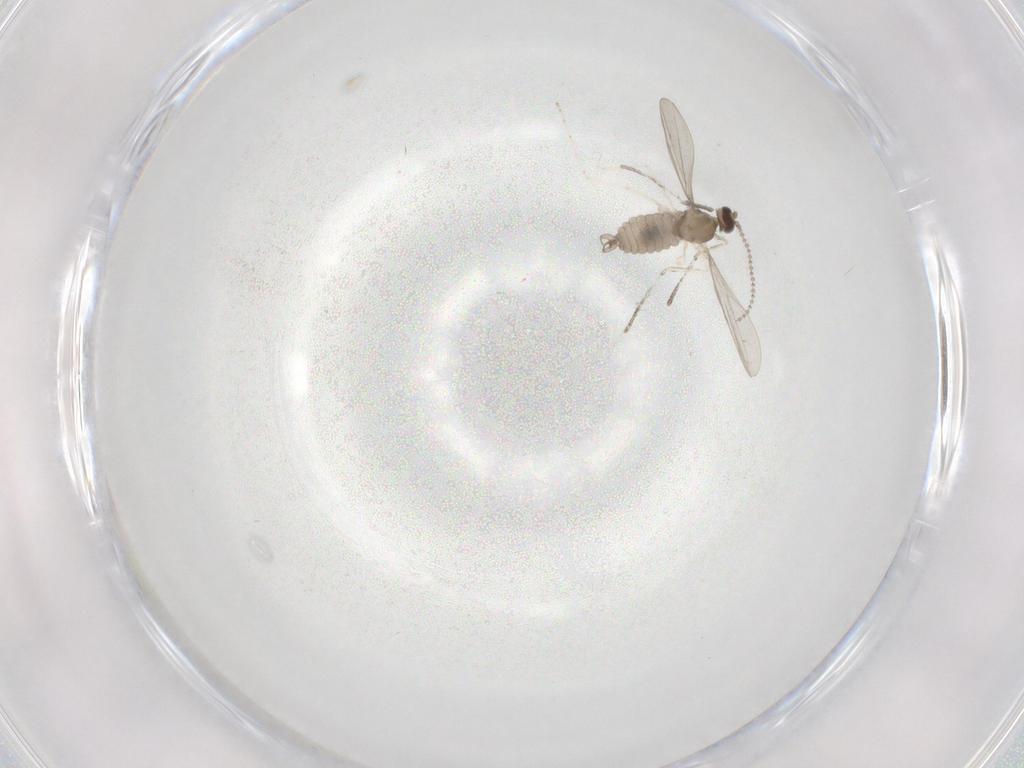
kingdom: Animalia
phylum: Arthropoda
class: Insecta
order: Diptera
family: Cecidomyiidae
